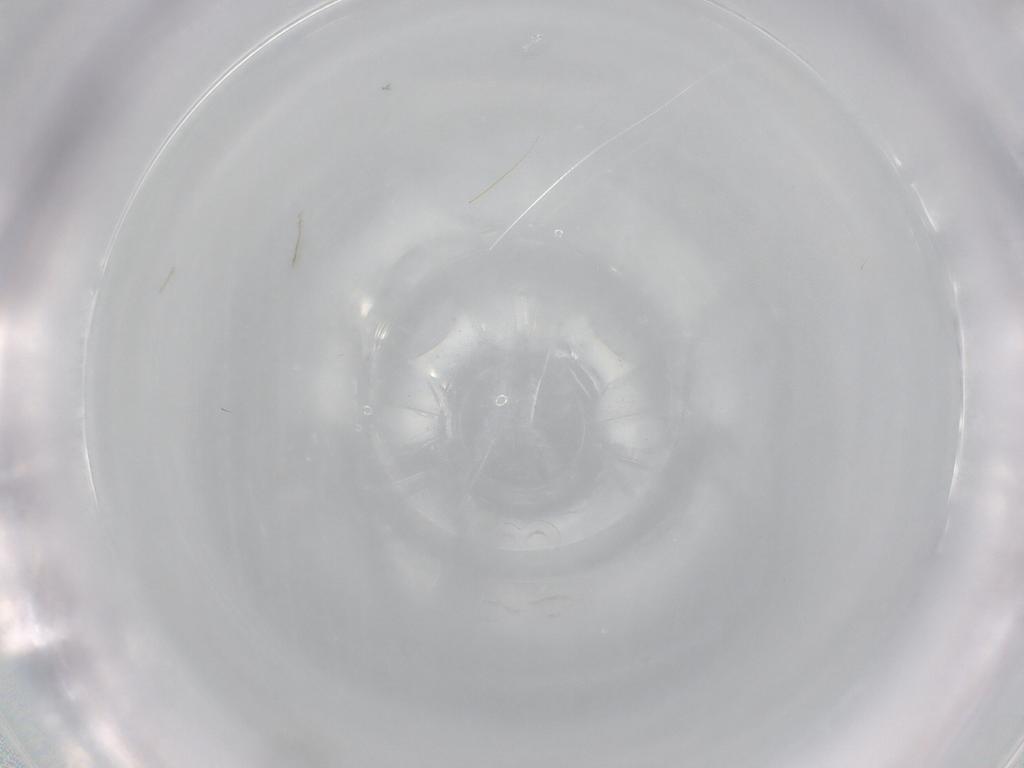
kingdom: Animalia
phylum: Arthropoda
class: Insecta
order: Hymenoptera
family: Mymaridae
